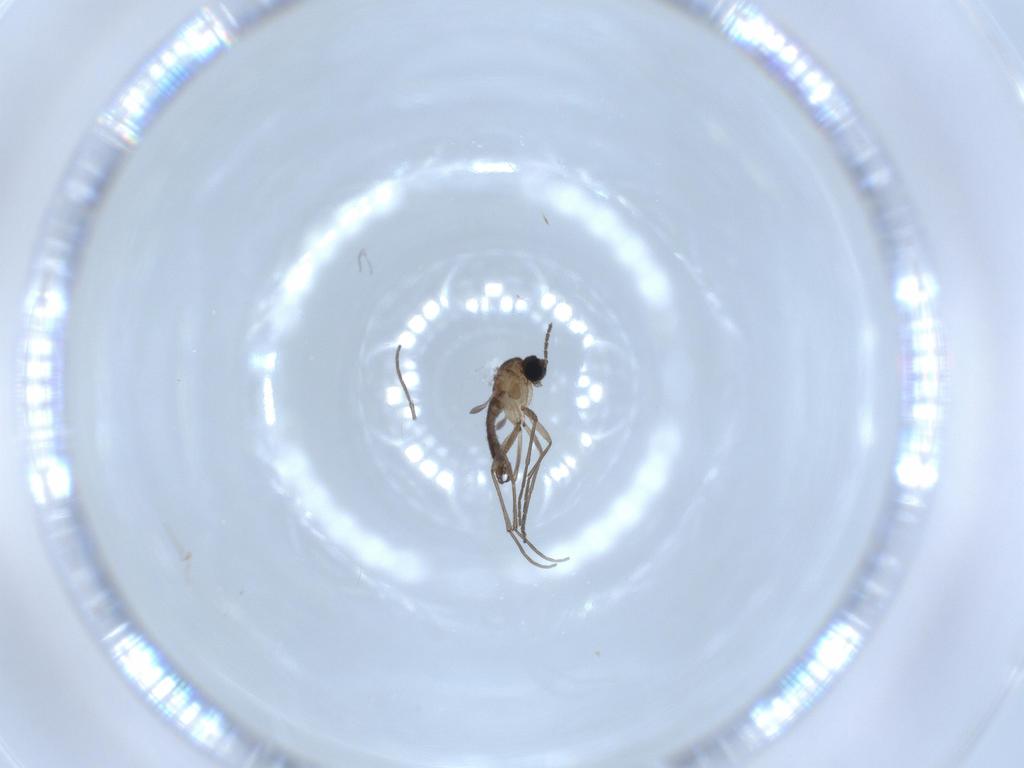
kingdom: Animalia
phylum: Arthropoda
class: Insecta
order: Diptera
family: Sciaridae
